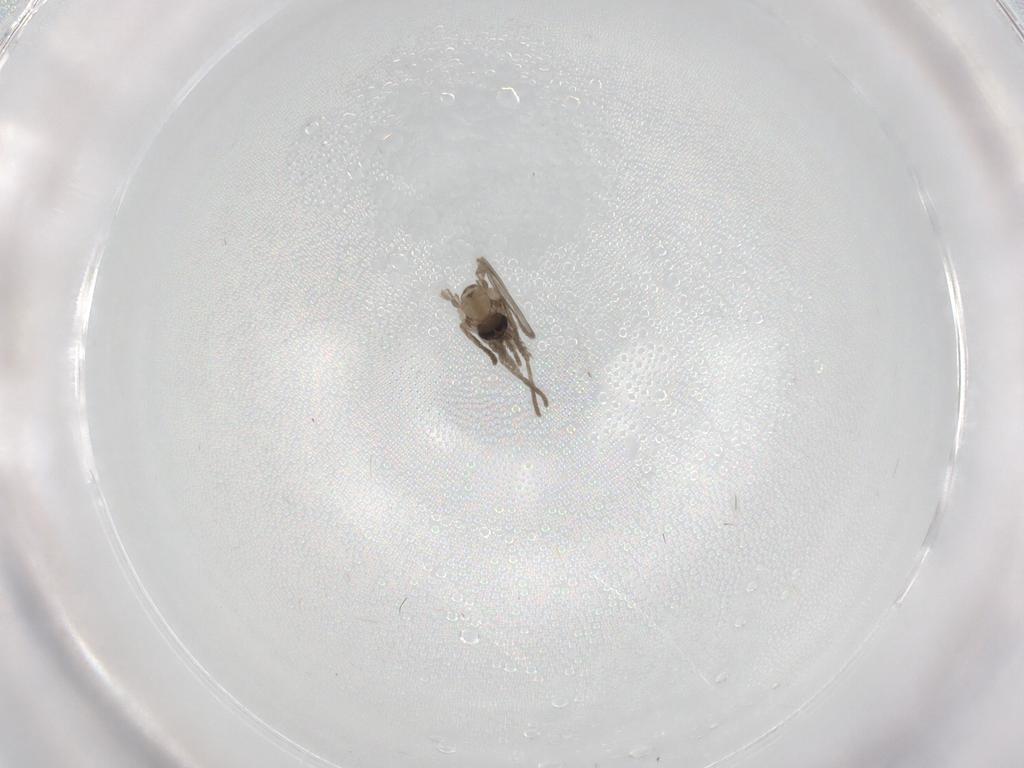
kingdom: Animalia
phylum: Arthropoda
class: Insecta
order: Diptera
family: Psychodidae
